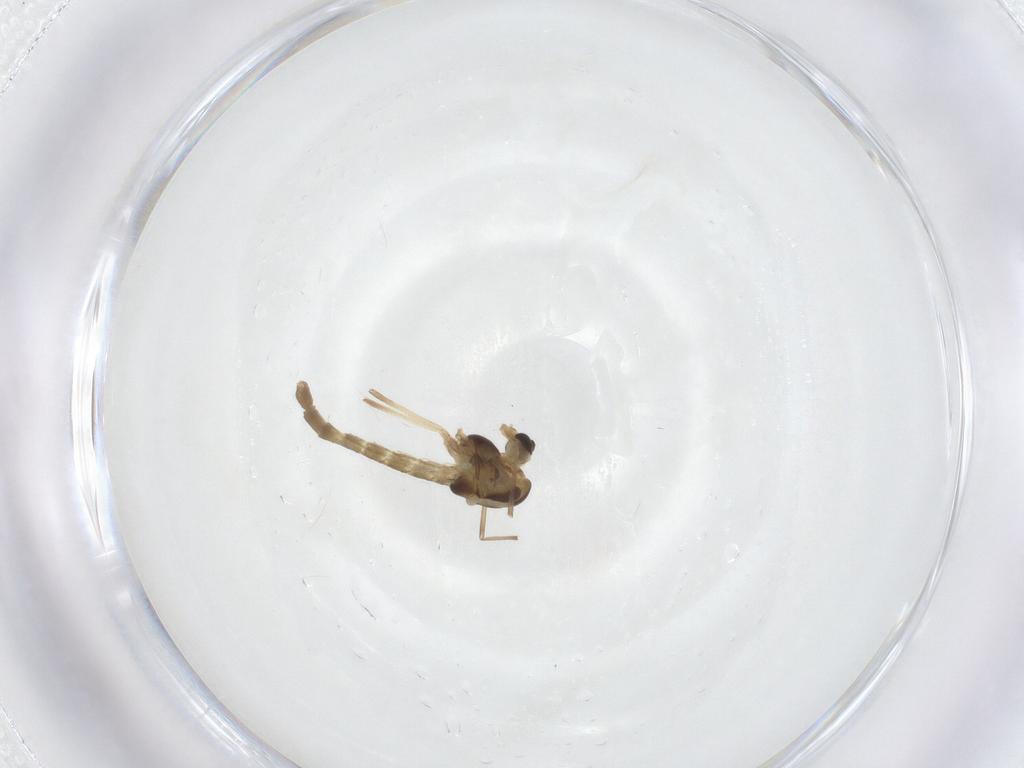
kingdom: Animalia
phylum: Arthropoda
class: Insecta
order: Diptera
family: Chironomidae
